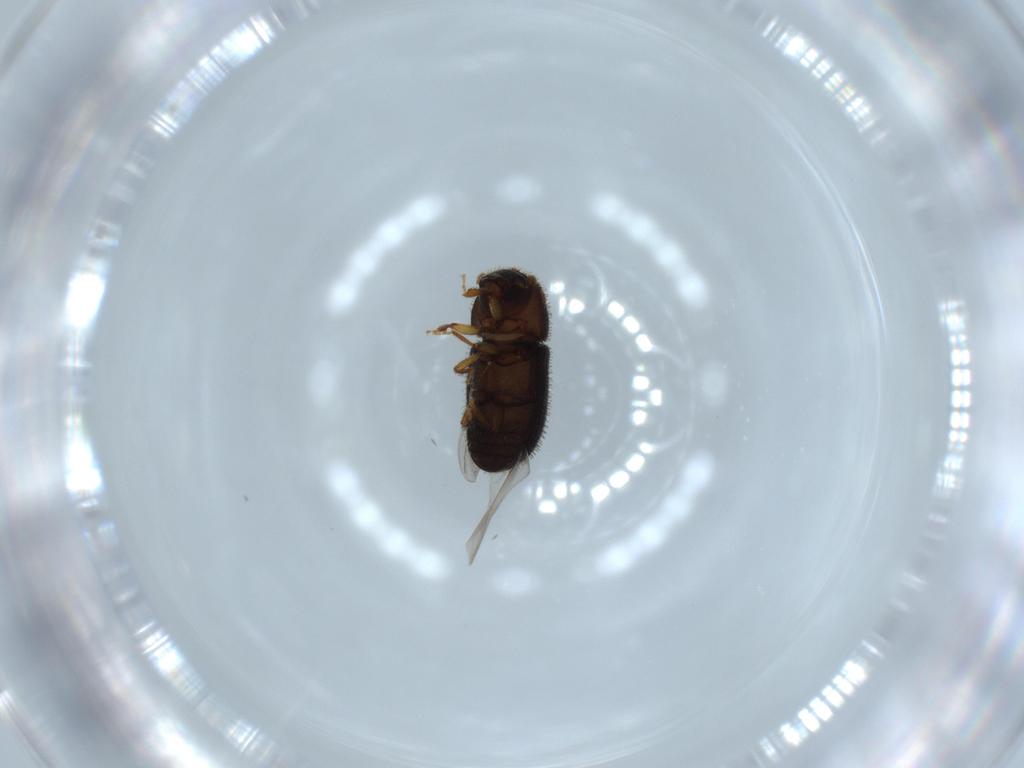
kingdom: Animalia
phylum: Arthropoda
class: Insecta
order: Coleoptera
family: Curculionidae
